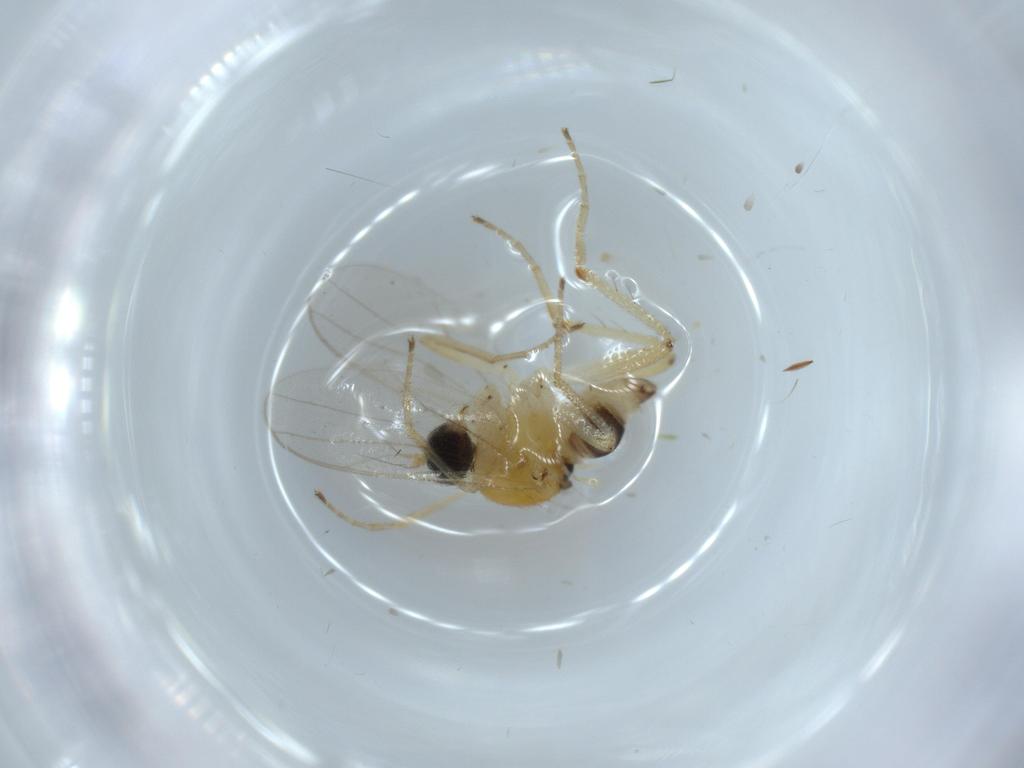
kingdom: Animalia
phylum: Arthropoda
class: Insecta
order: Diptera
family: Hybotidae
